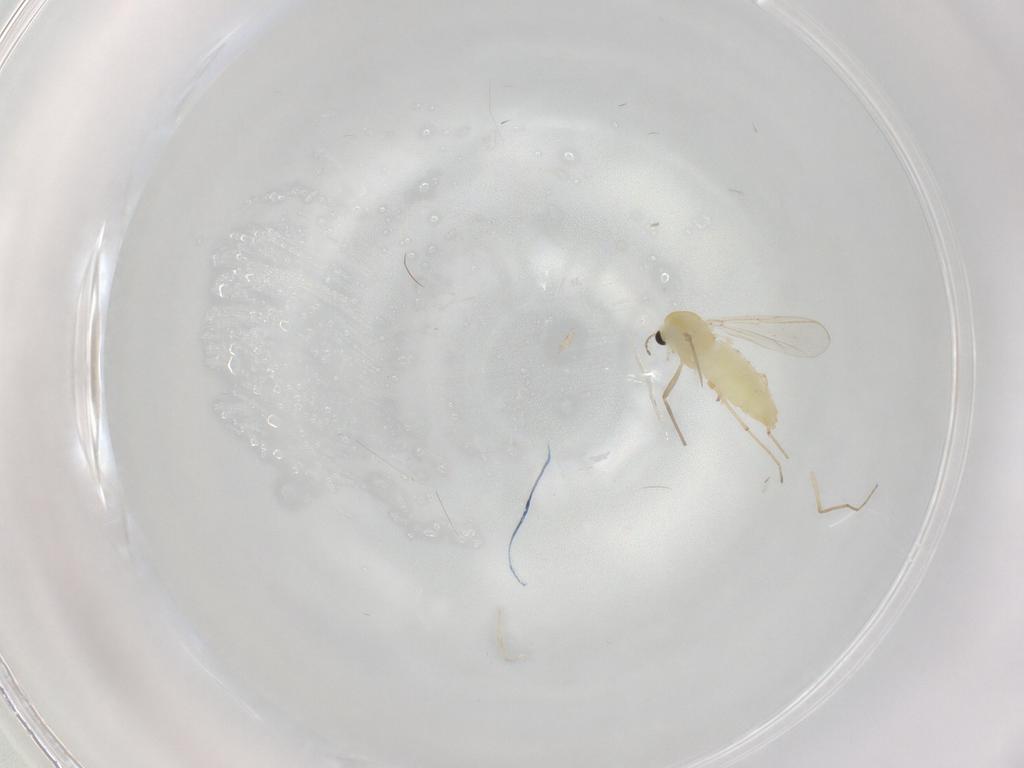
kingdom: Animalia
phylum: Arthropoda
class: Insecta
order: Diptera
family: Chironomidae
